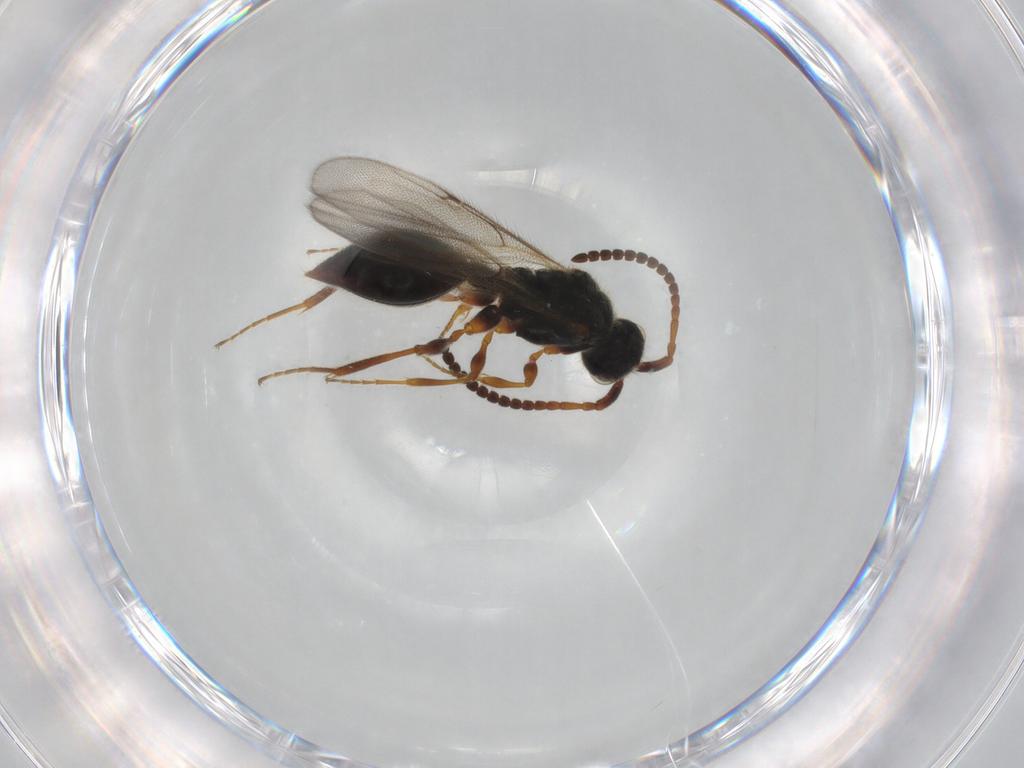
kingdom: Animalia
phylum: Arthropoda
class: Insecta
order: Hymenoptera
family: Diapriidae
